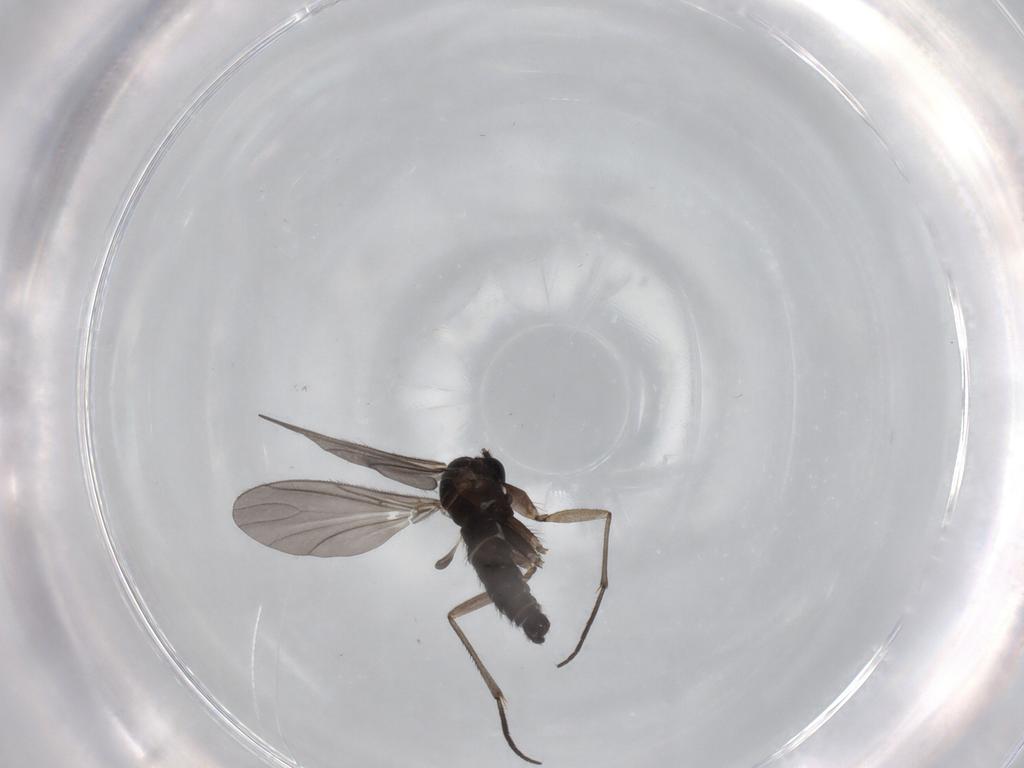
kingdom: Animalia
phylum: Arthropoda
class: Insecta
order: Diptera
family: Sciaridae
